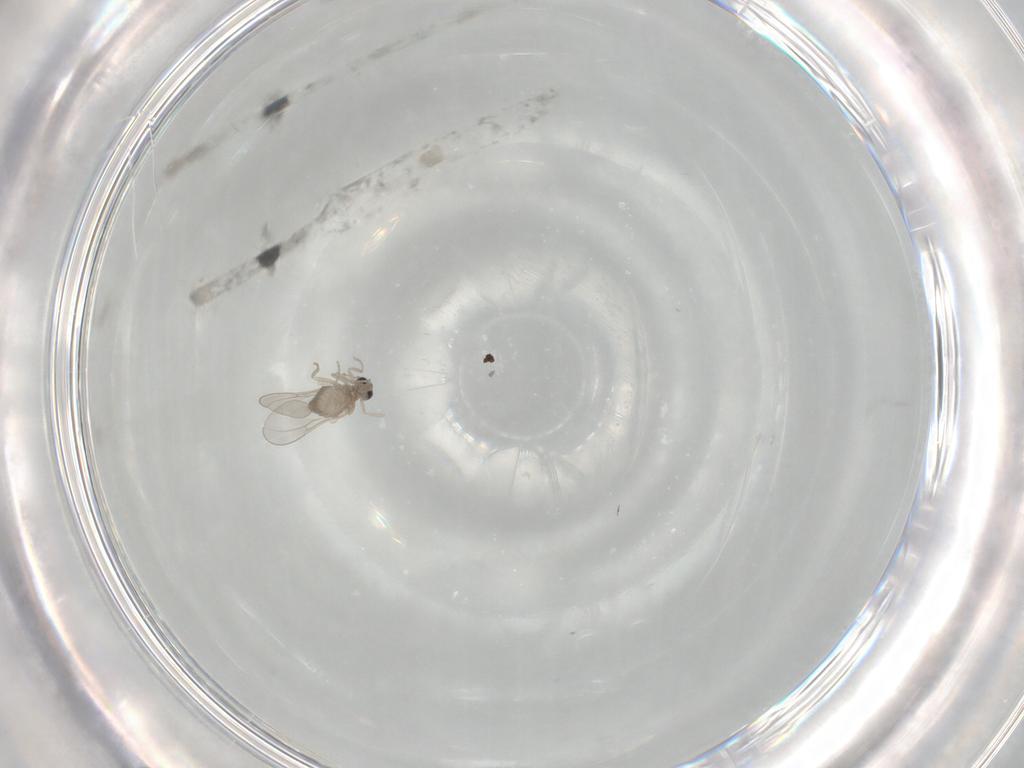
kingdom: Animalia
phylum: Arthropoda
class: Insecta
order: Diptera
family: Cecidomyiidae
